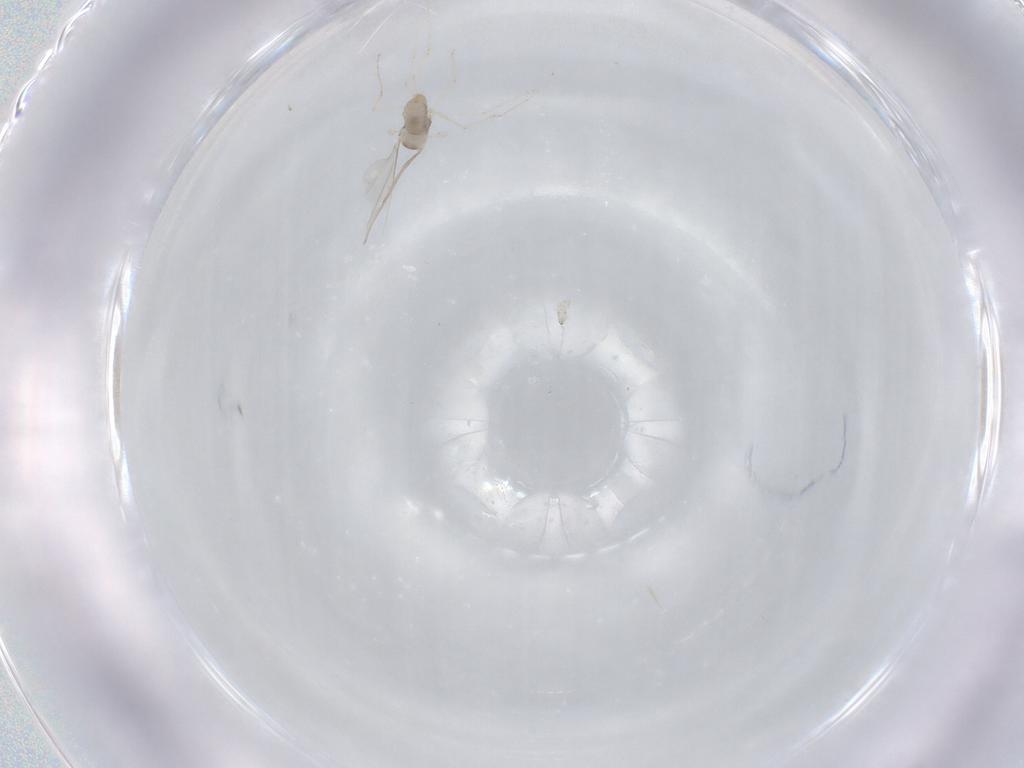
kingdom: Animalia
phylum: Arthropoda
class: Insecta
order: Diptera
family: Cecidomyiidae
